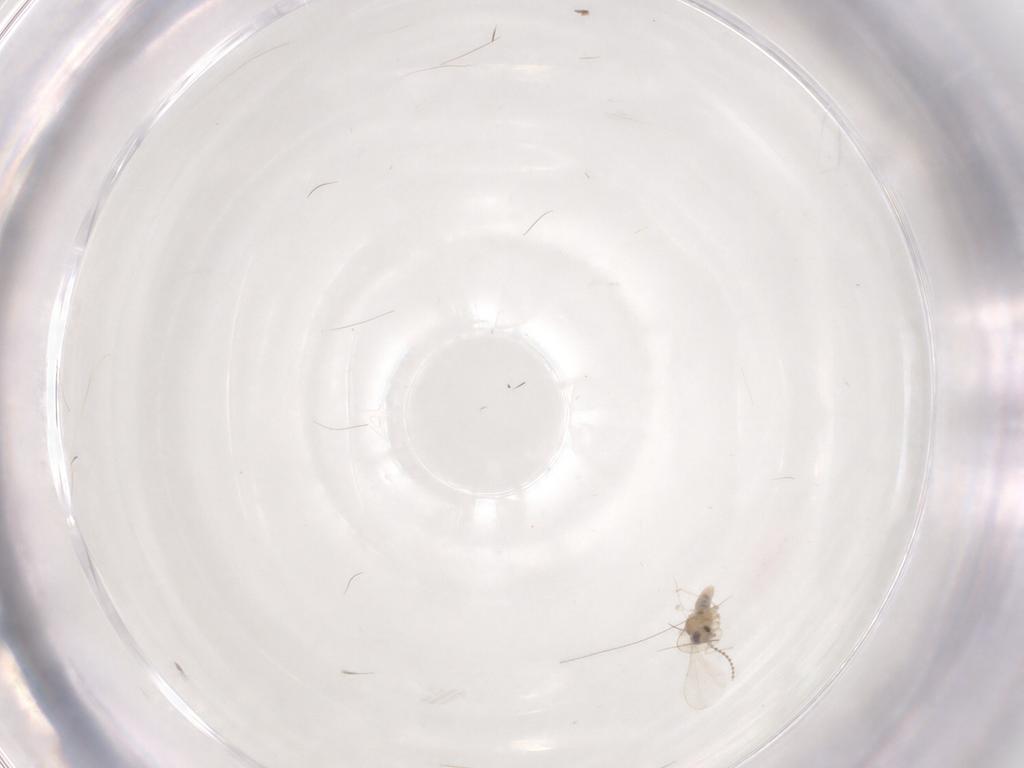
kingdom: Animalia
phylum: Arthropoda
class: Insecta
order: Diptera
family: Cecidomyiidae
